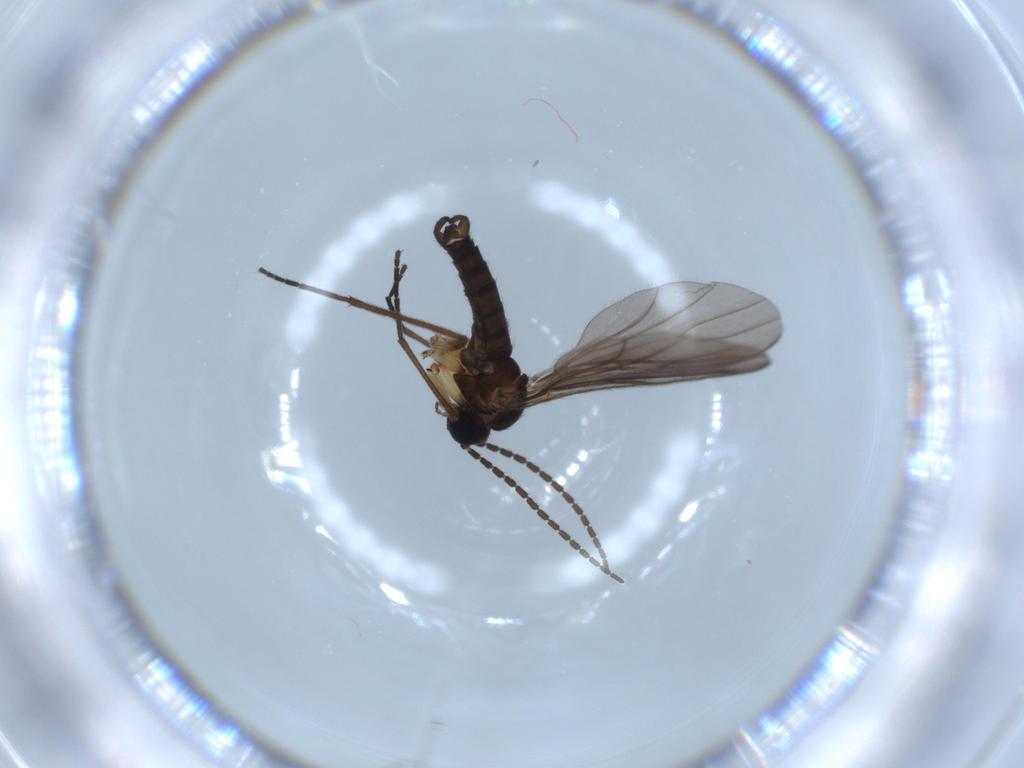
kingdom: Animalia
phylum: Arthropoda
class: Insecta
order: Diptera
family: Sciaridae
